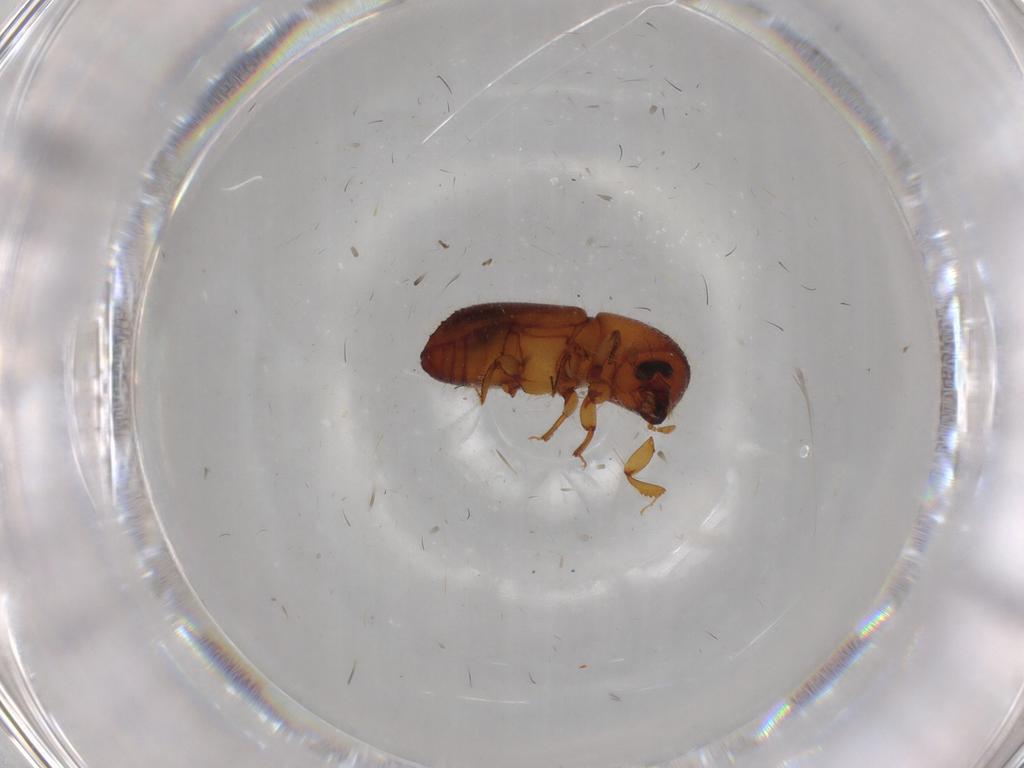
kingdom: Animalia
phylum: Arthropoda
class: Insecta
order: Coleoptera
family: Curculionidae
